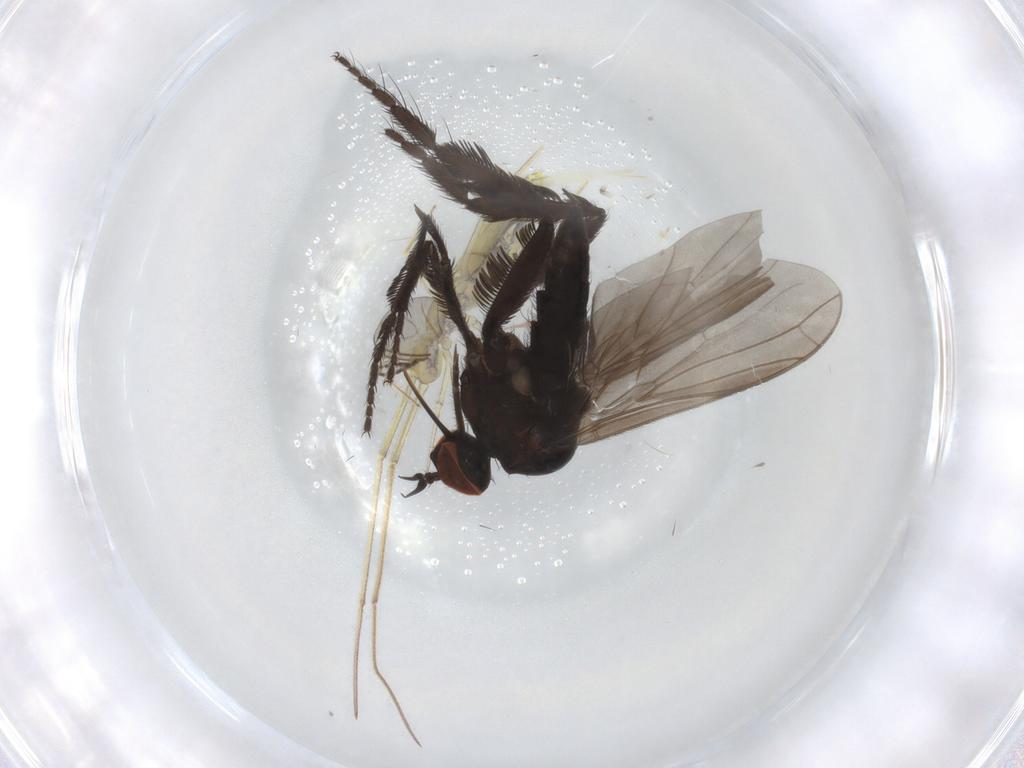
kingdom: Animalia
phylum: Arthropoda
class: Insecta
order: Diptera
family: Empididae
